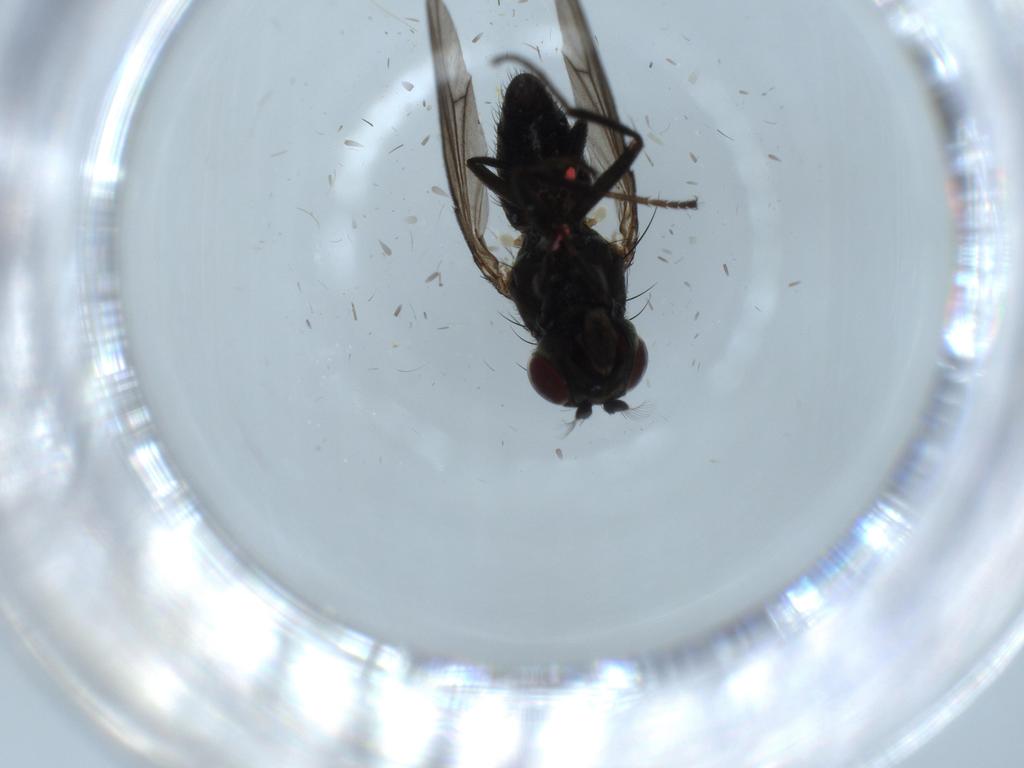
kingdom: Animalia
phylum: Arthropoda
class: Insecta
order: Diptera
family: Ephydridae
